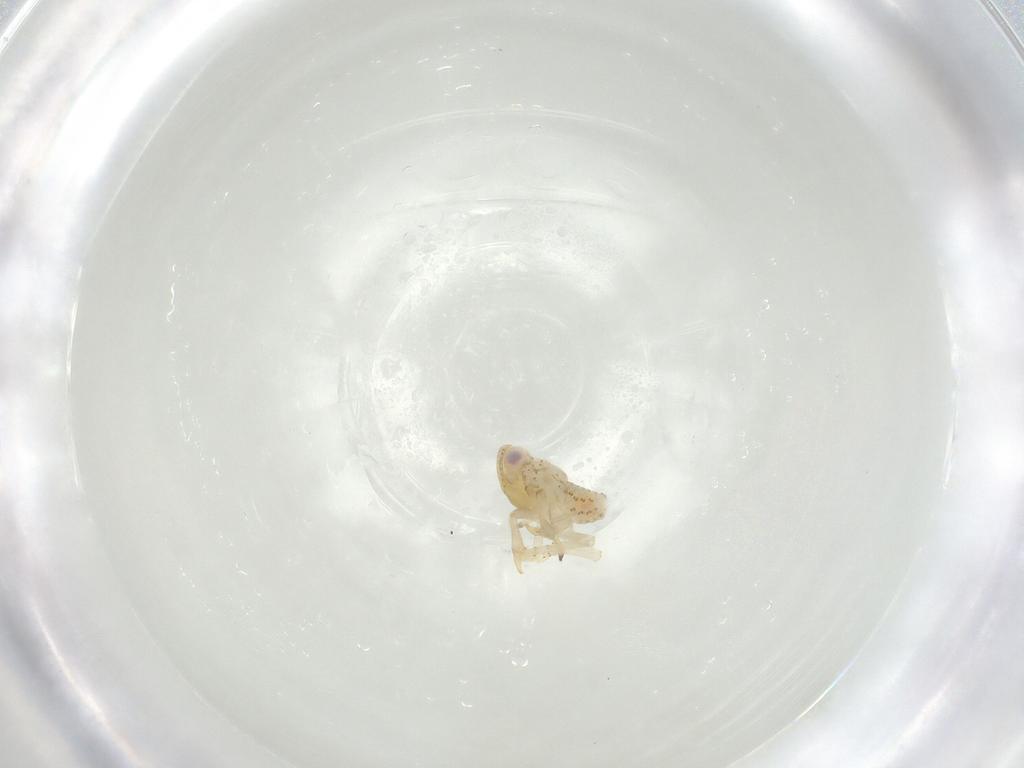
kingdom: Animalia
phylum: Arthropoda
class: Insecta
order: Hemiptera
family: Tropiduchidae
